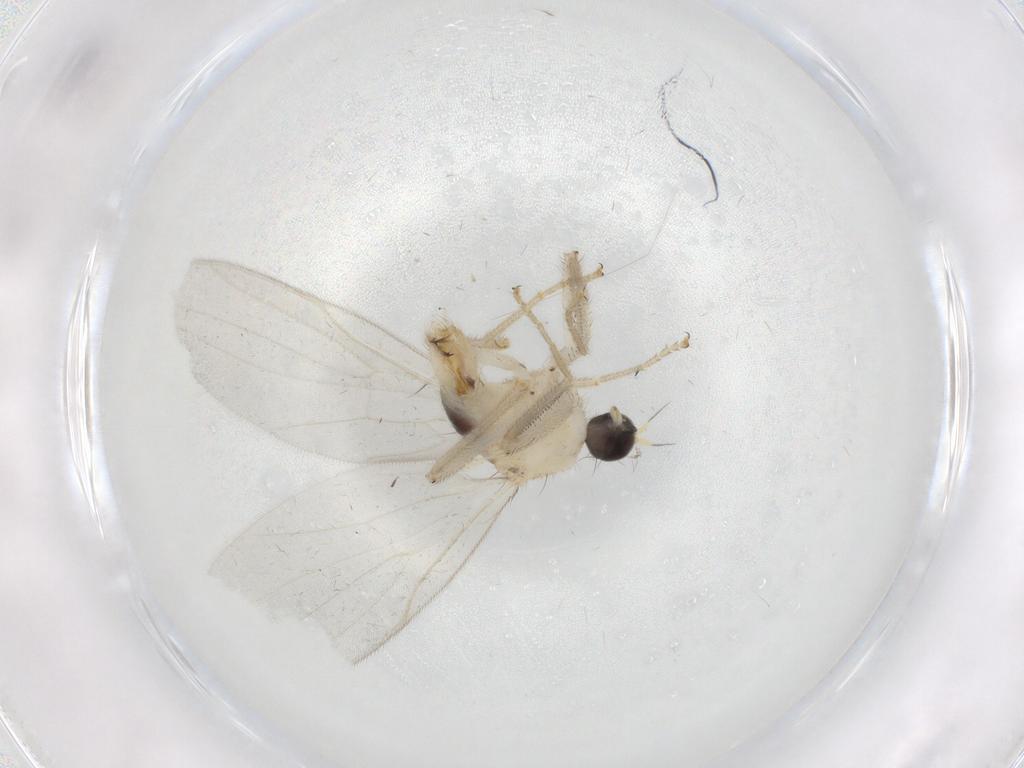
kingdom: Animalia
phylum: Arthropoda
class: Insecta
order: Diptera
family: Hybotidae
